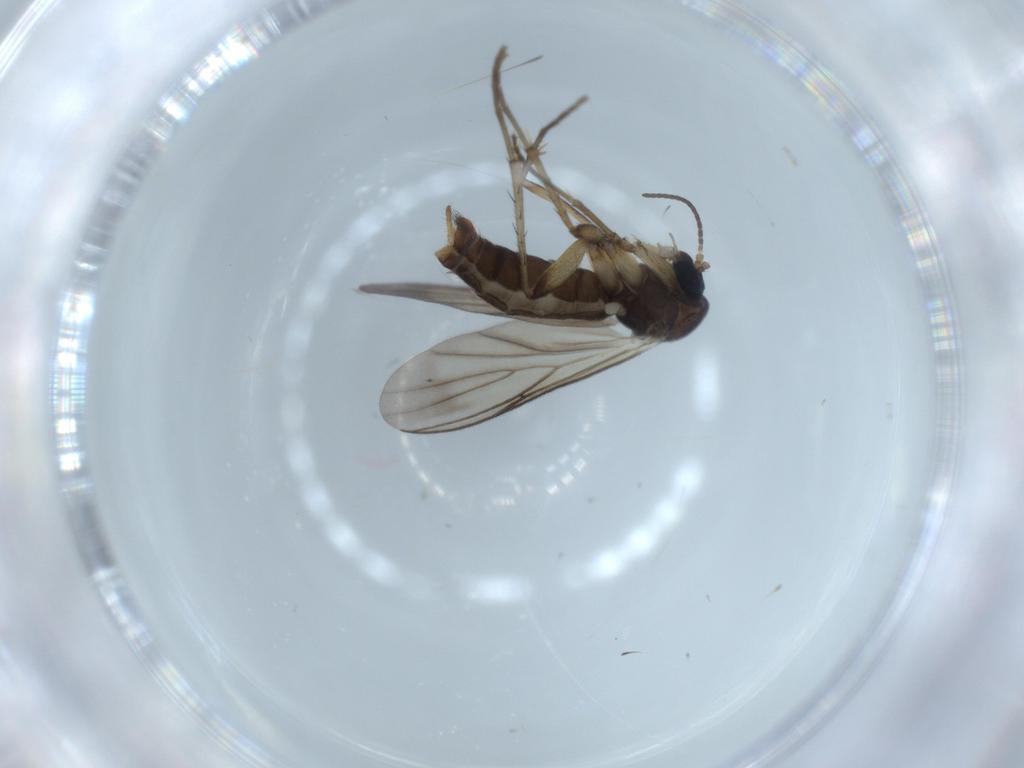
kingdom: Animalia
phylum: Arthropoda
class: Insecta
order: Diptera
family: Mycetophilidae
